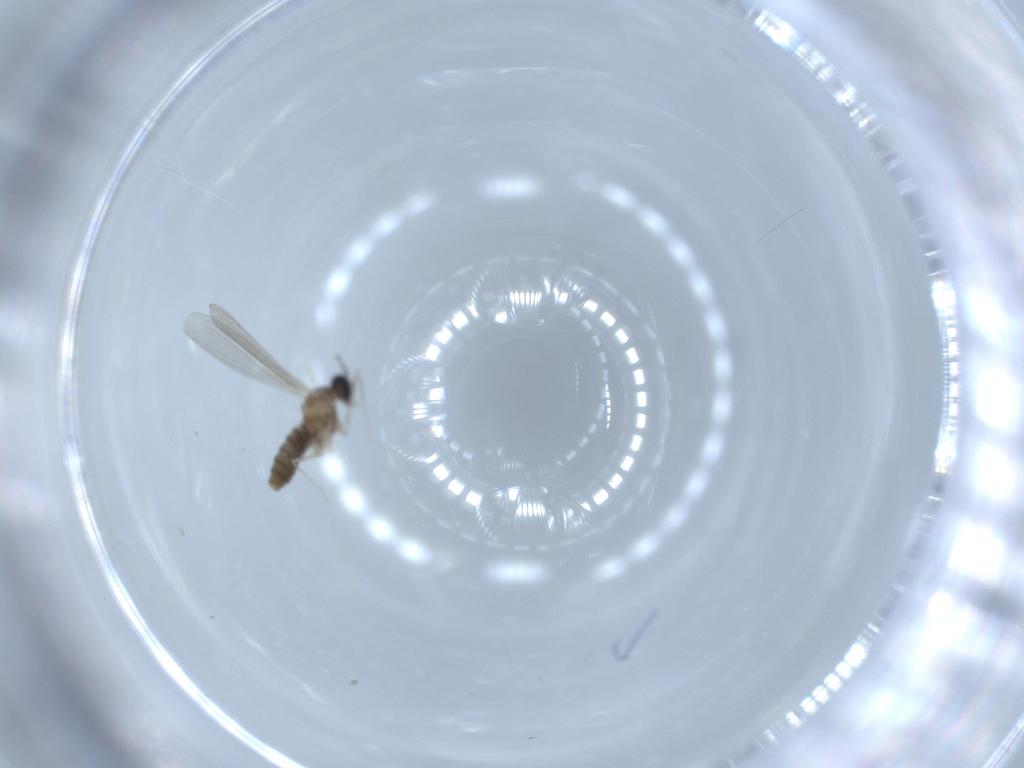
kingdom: Animalia
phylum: Arthropoda
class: Insecta
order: Diptera
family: Cecidomyiidae
